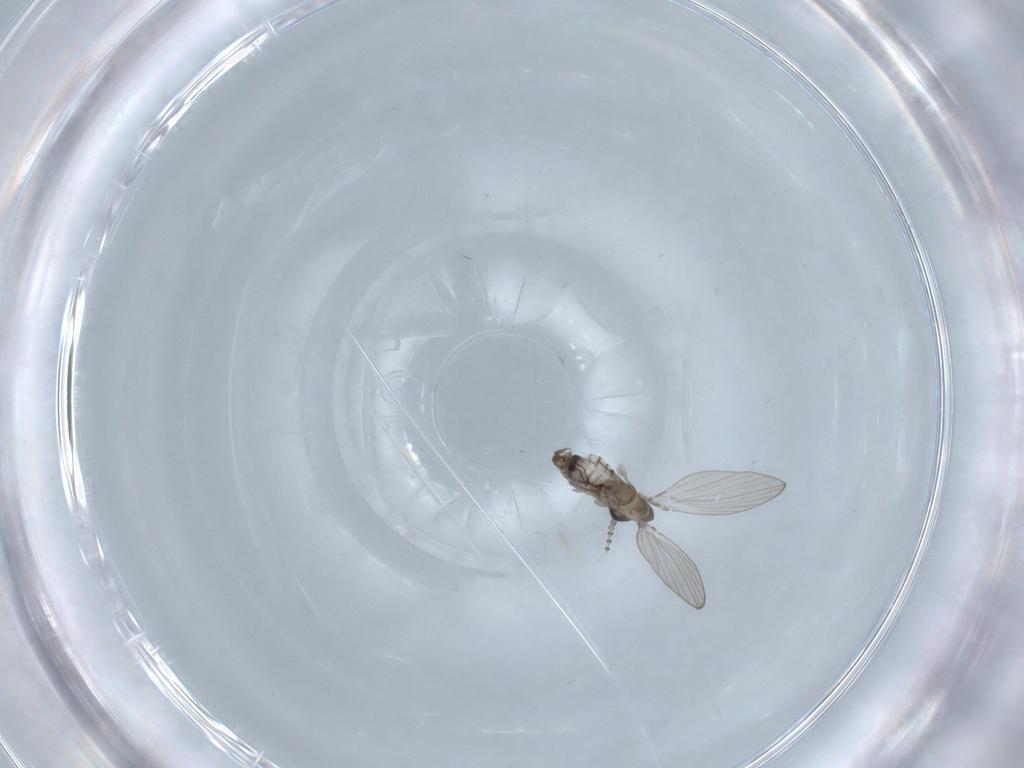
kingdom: Animalia
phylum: Arthropoda
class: Insecta
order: Diptera
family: Psychodidae
